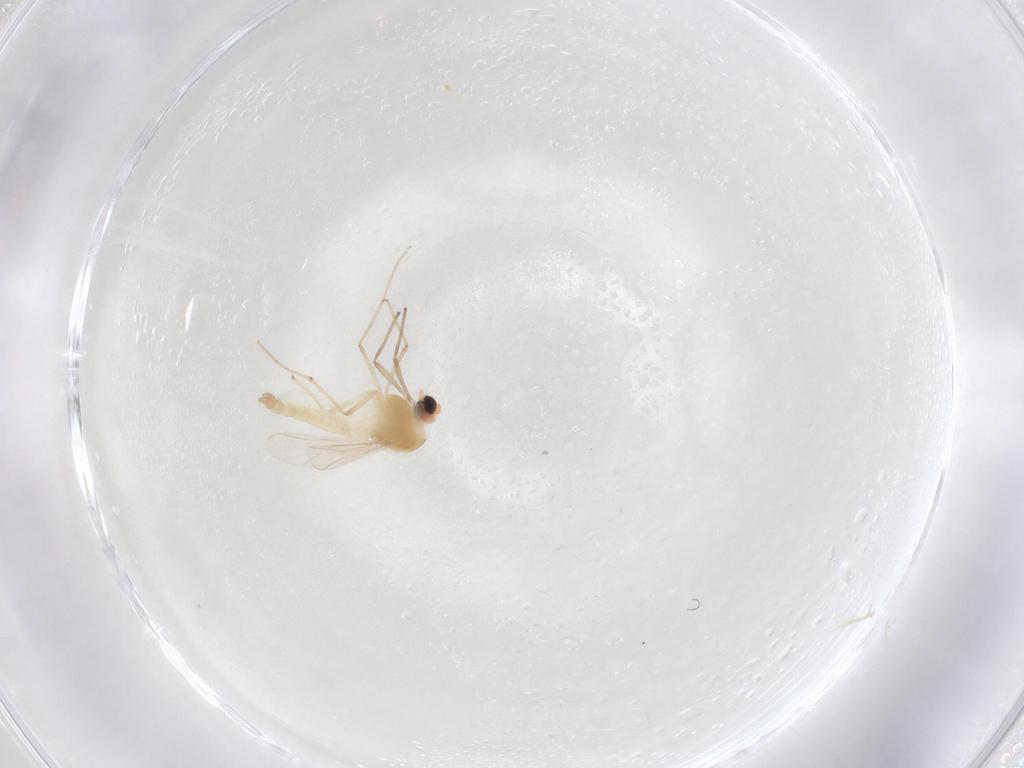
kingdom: Animalia
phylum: Arthropoda
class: Insecta
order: Diptera
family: Chironomidae
